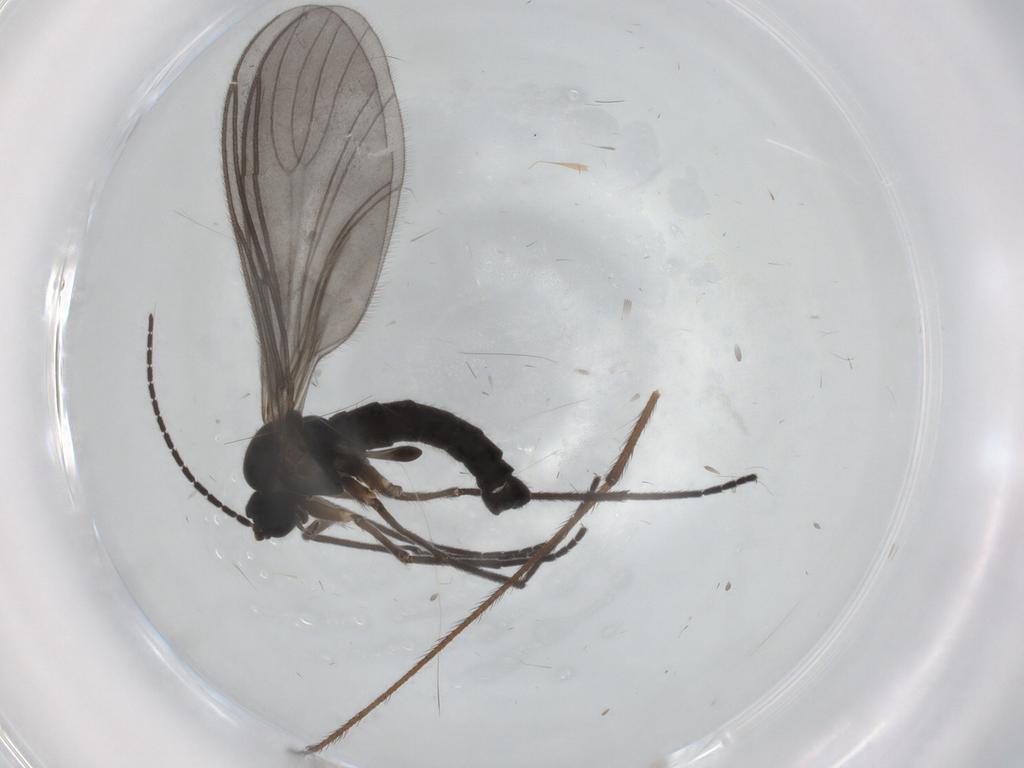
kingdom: Animalia
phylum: Arthropoda
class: Insecta
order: Diptera
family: Sciaridae
